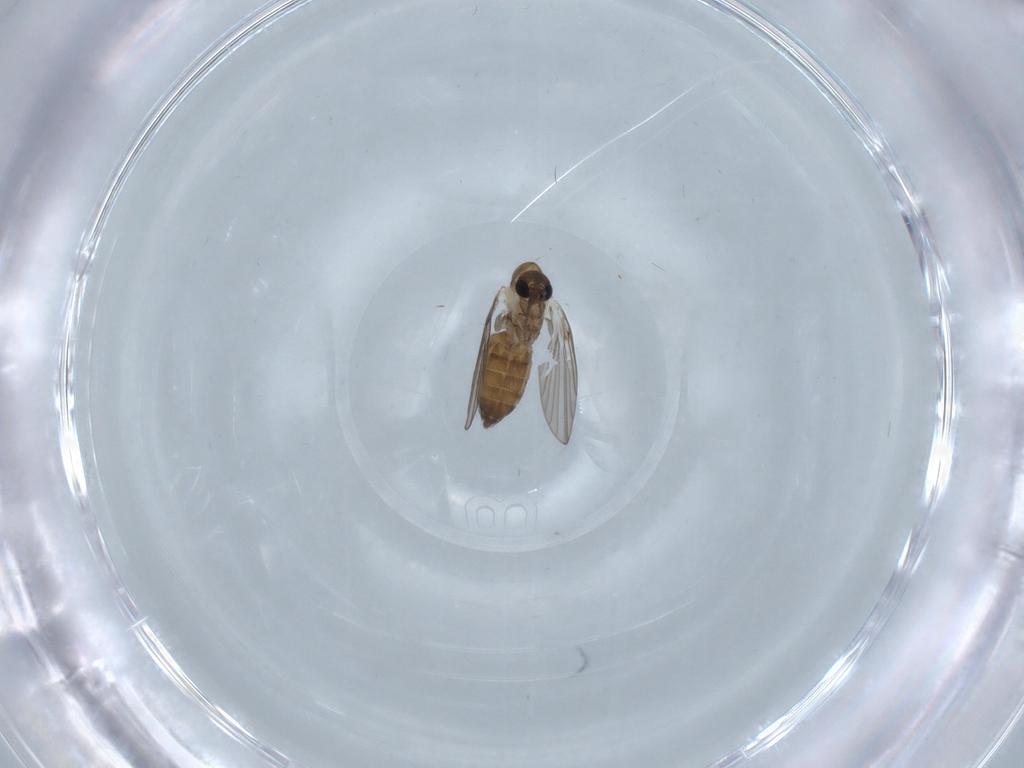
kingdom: Animalia
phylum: Arthropoda
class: Insecta
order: Diptera
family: Psychodidae
